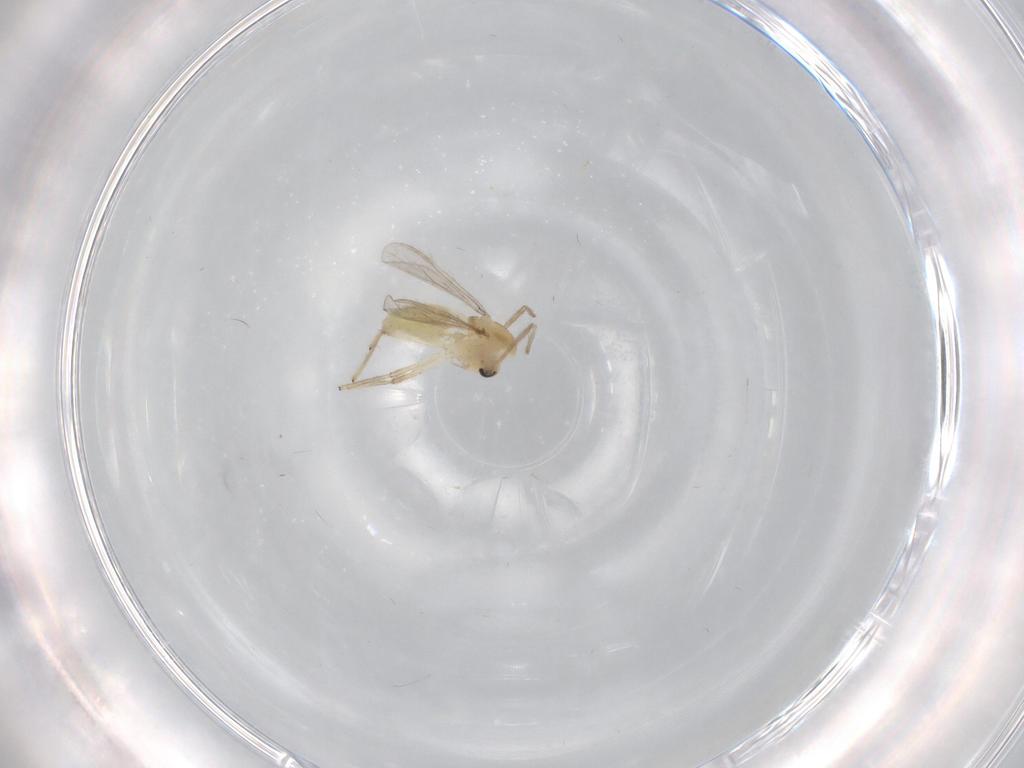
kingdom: Animalia
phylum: Arthropoda
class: Insecta
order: Diptera
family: Chironomidae
